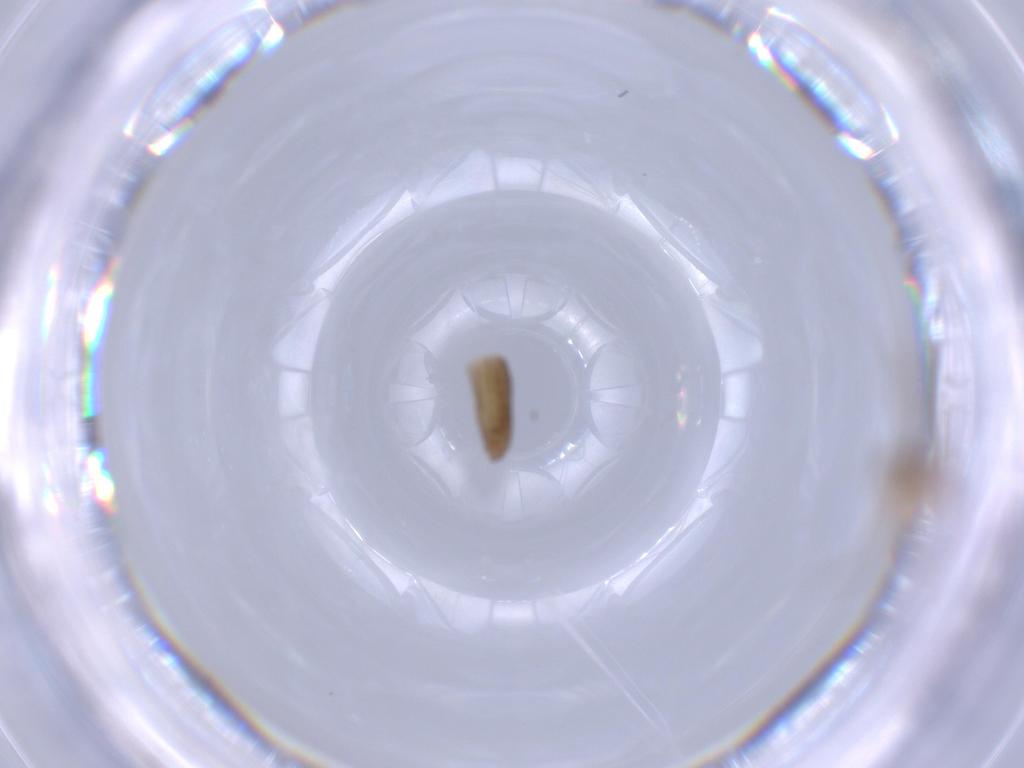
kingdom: Animalia
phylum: Arthropoda
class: Insecta
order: Diptera
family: Chironomidae
